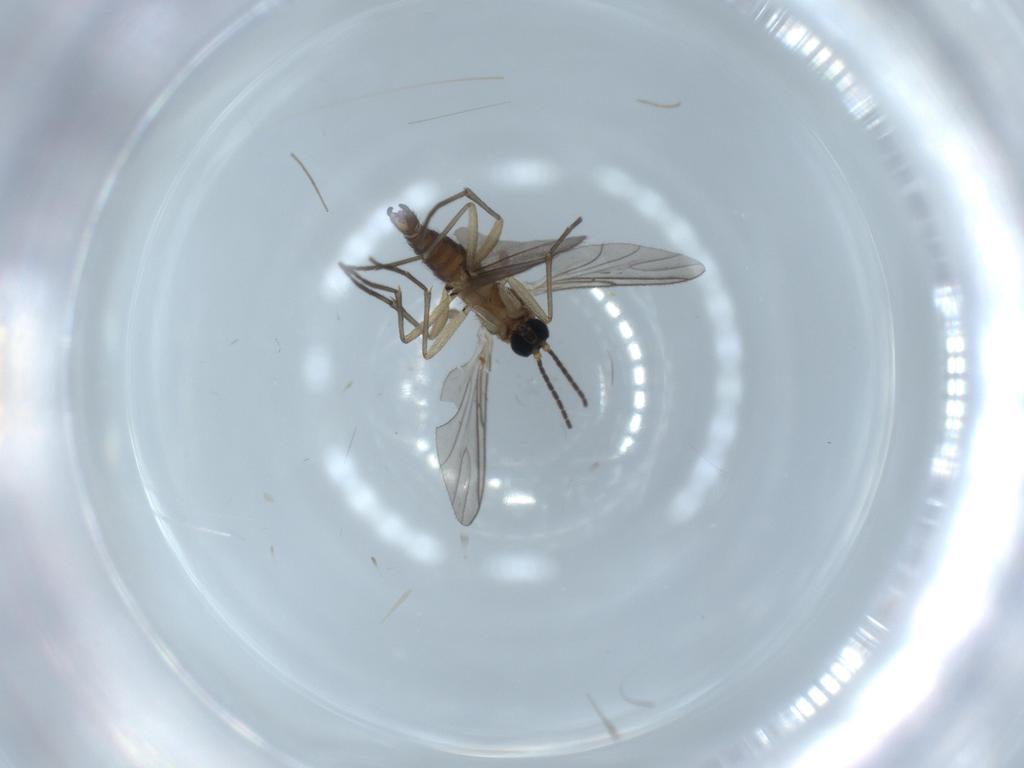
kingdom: Animalia
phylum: Arthropoda
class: Insecta
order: Diptera
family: Sciaridae
